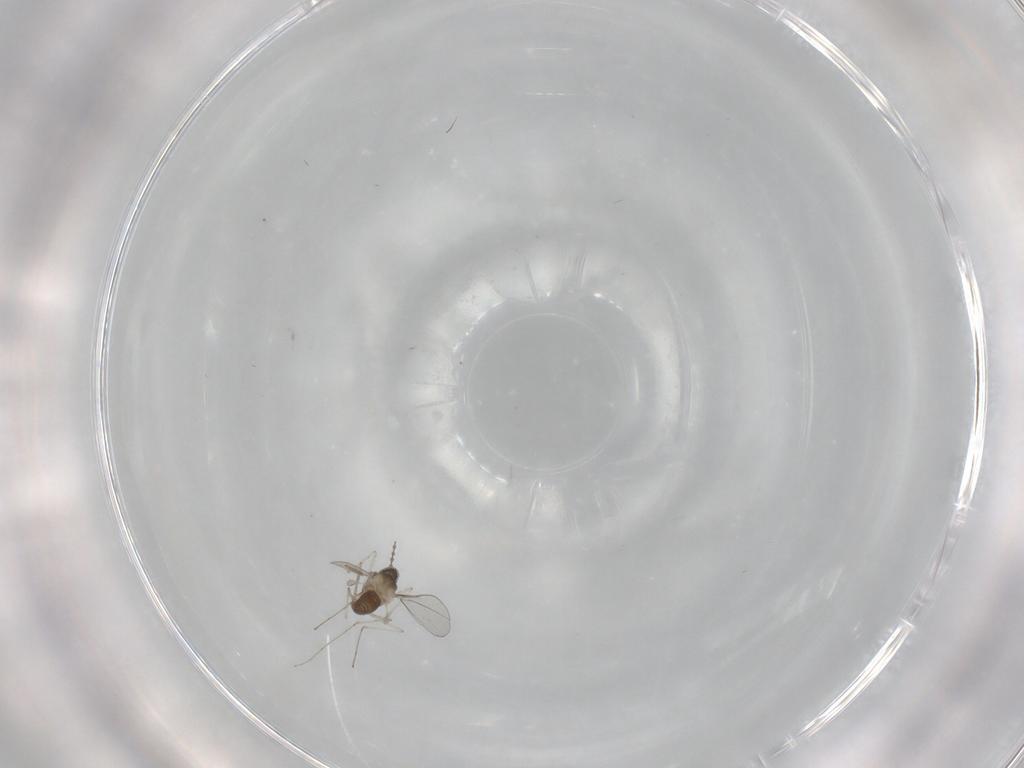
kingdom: Animalia
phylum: Arthropoda
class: Insecta
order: Diptera
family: Cecidomyiidae
